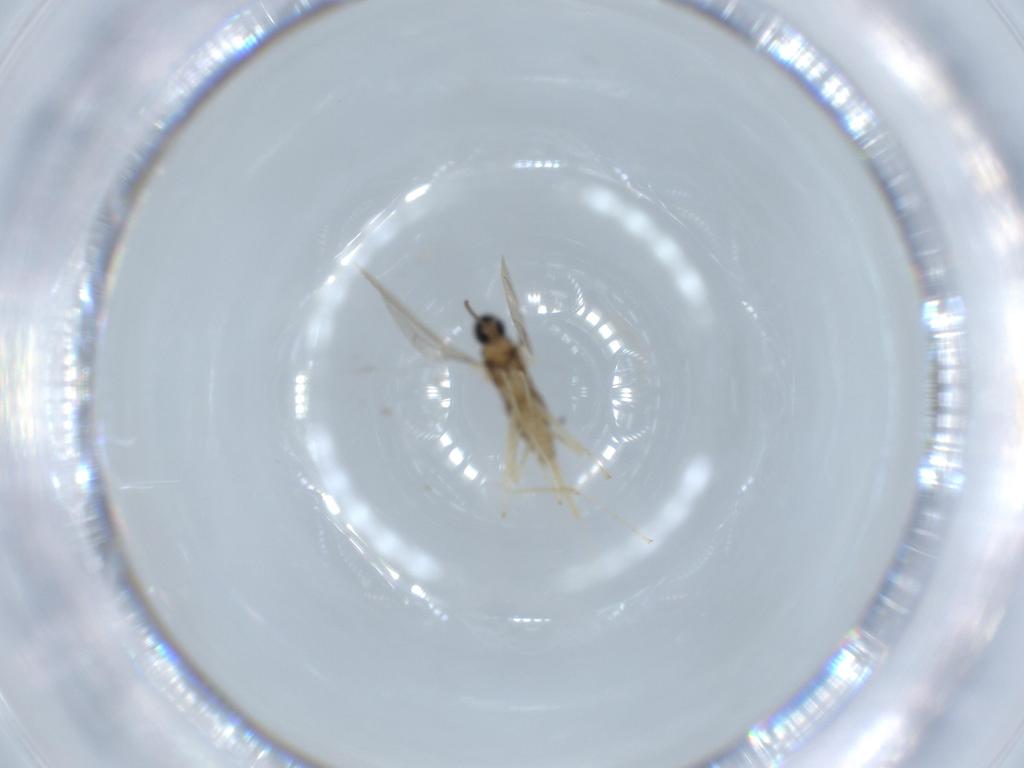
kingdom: Animalia
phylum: Arthropoda
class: Insecta
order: Diptera
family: Cecidomyiidae
